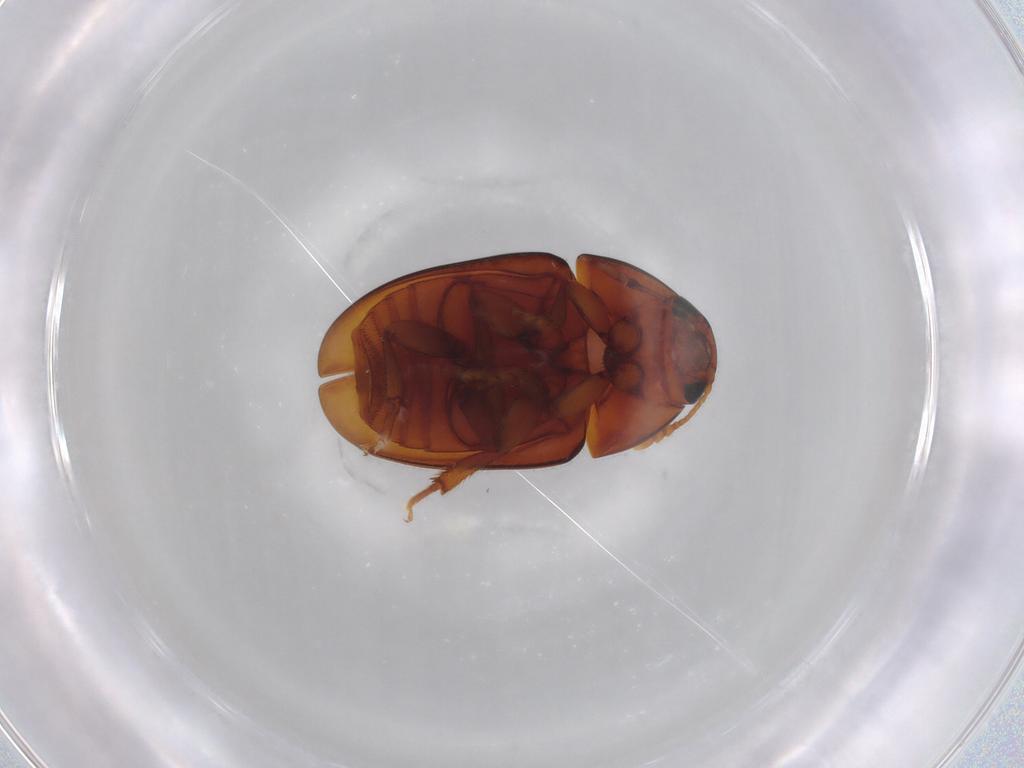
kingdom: Animalia
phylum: Arthropoda
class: Insecta
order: Coleoptera
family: Phalacridae
